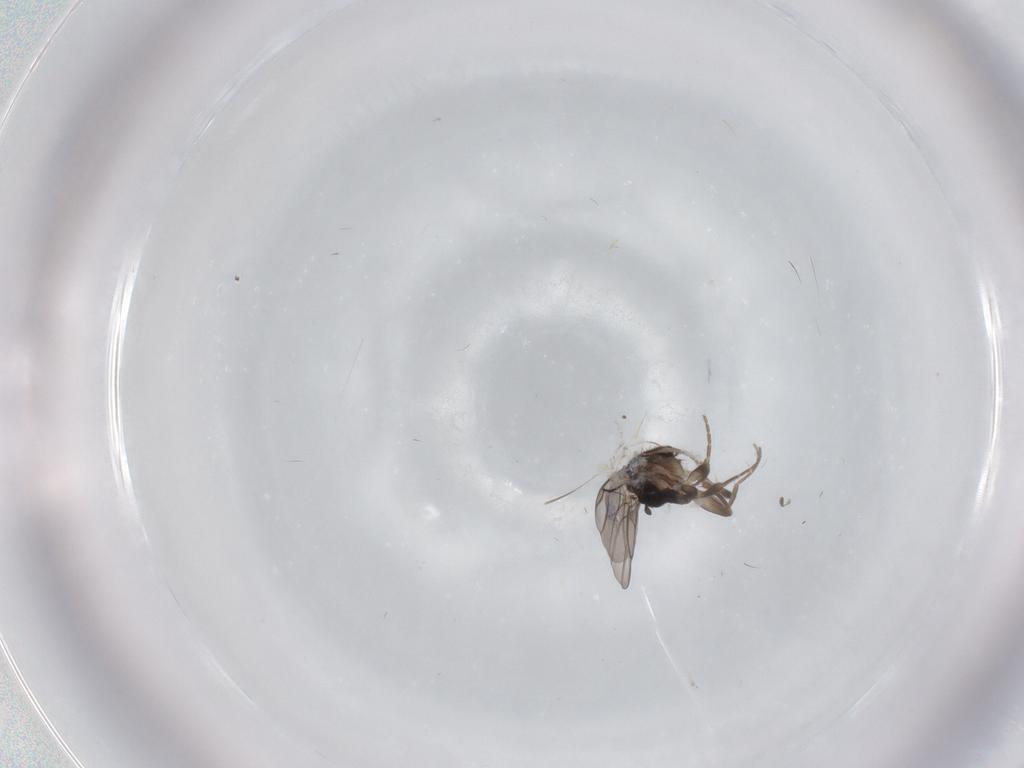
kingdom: Animalia
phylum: Arthropoda
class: Insecta
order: Diptera
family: Phoridae
